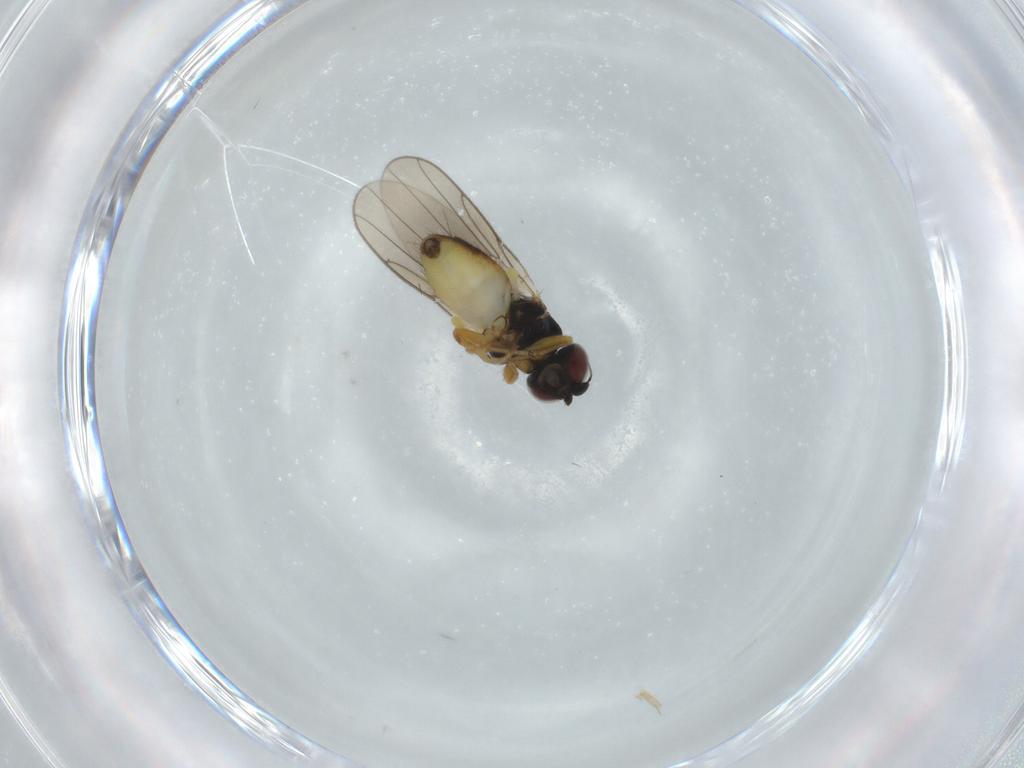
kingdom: Animalia
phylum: Arthropoda
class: Insecta
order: Diptera
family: Chloropidae
